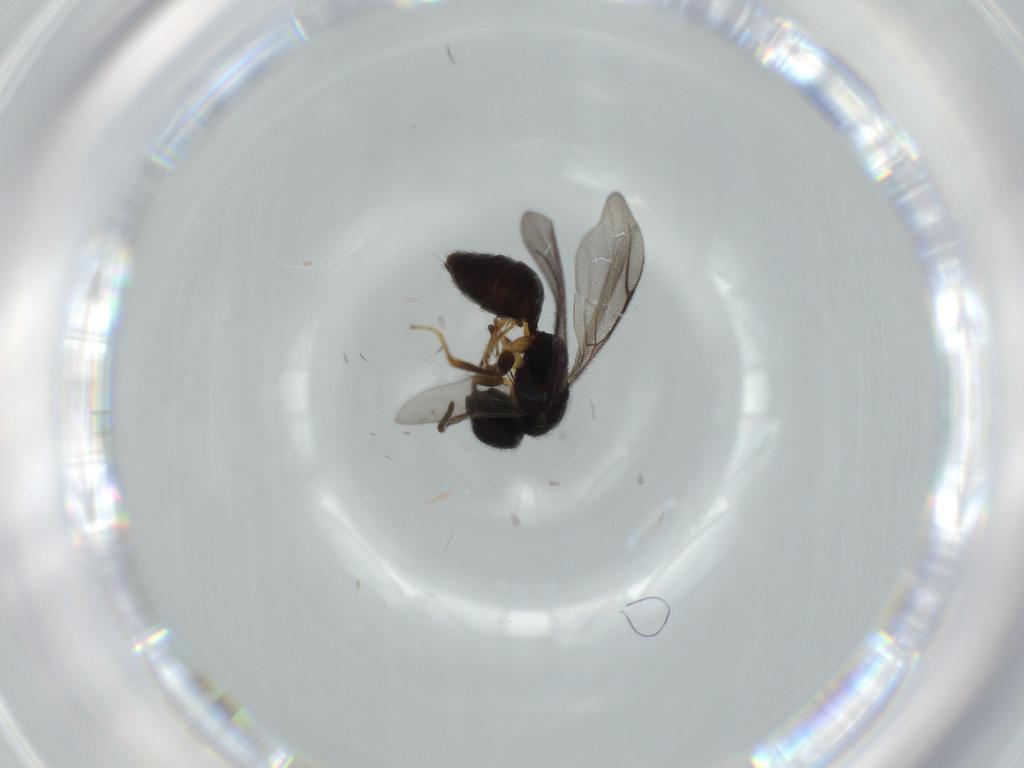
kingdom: Animalia
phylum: Arthropoda
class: Insecta
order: Hymenoptera
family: Bethylidae
